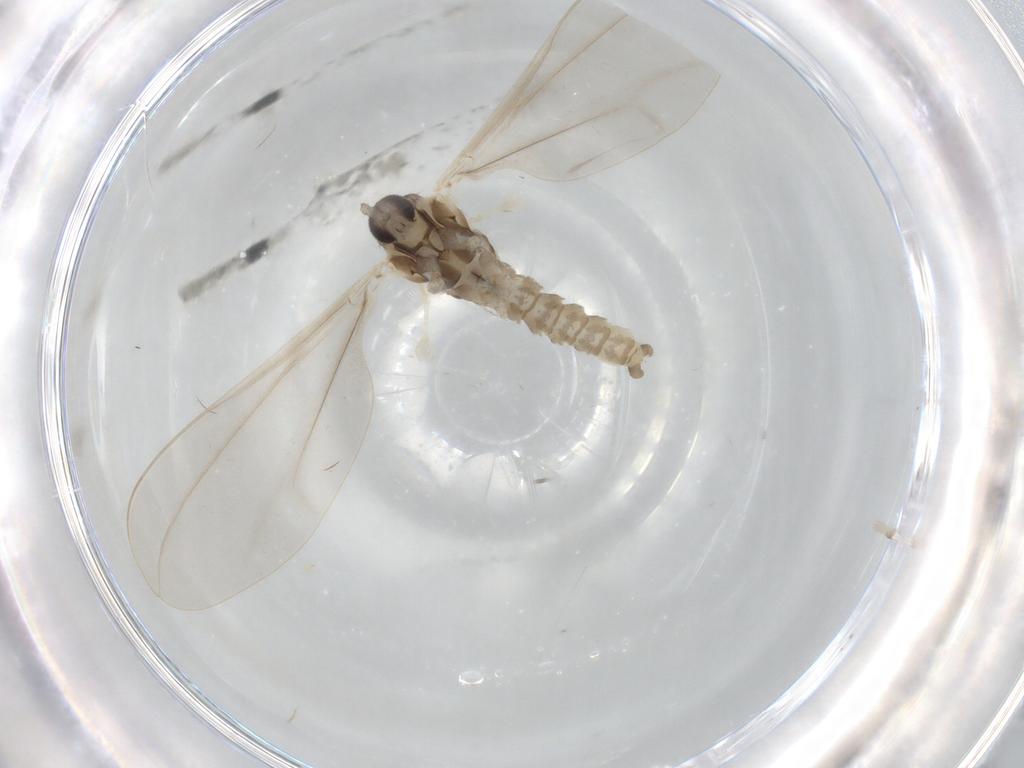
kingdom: Animalia
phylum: Arthropoda
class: Insecta
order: Diptera
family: Cecidomyiidae
